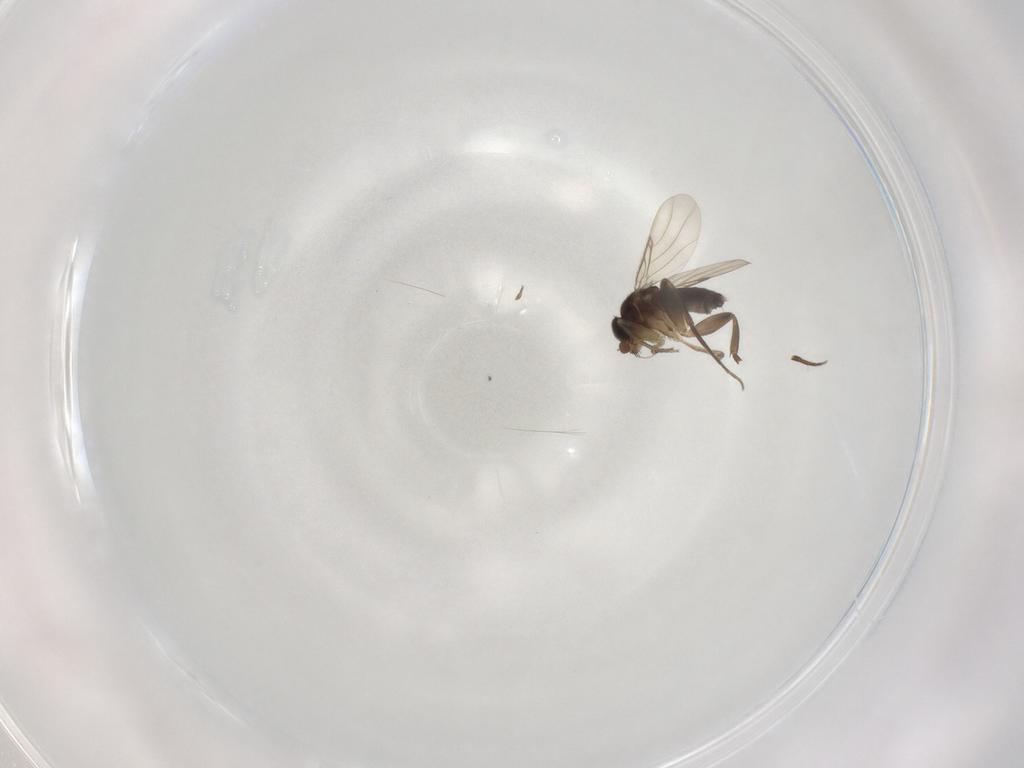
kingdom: Animalia
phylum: Arthropoda
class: Insecta
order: Diptera
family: Phoridae
